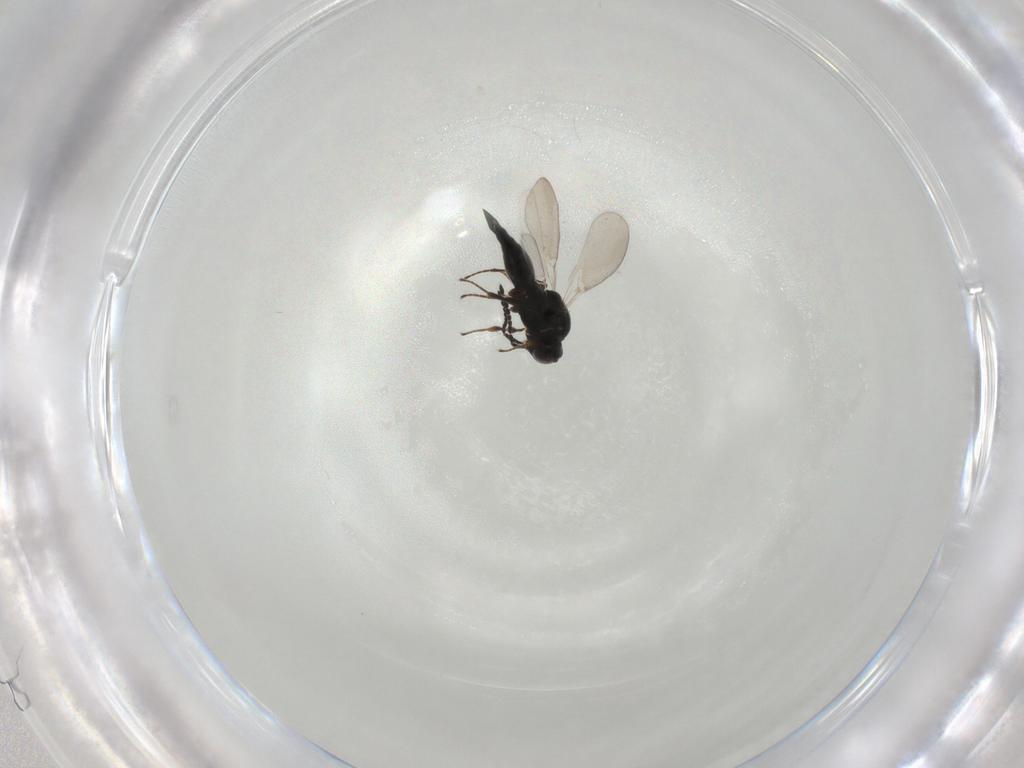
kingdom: Animalia
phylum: Arthropoda
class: Insecta
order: Hymenoptera
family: Platygastridae
